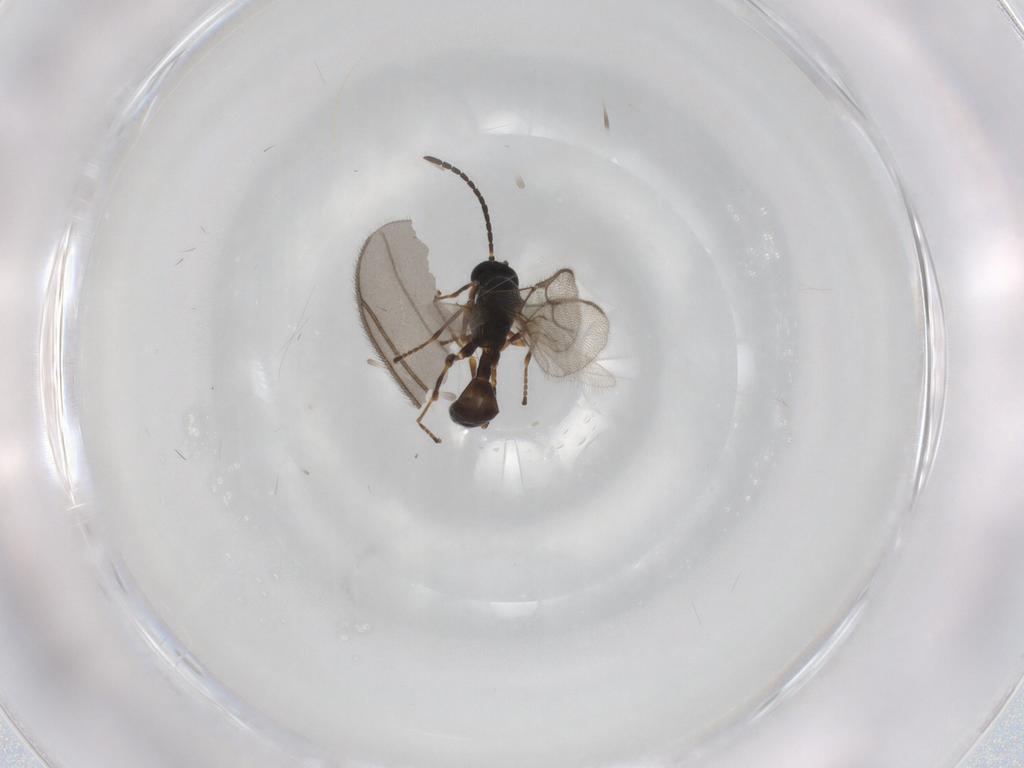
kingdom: Animalia
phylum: Arthropoda
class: Insecta
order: Hymenoptera
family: Braconidae
